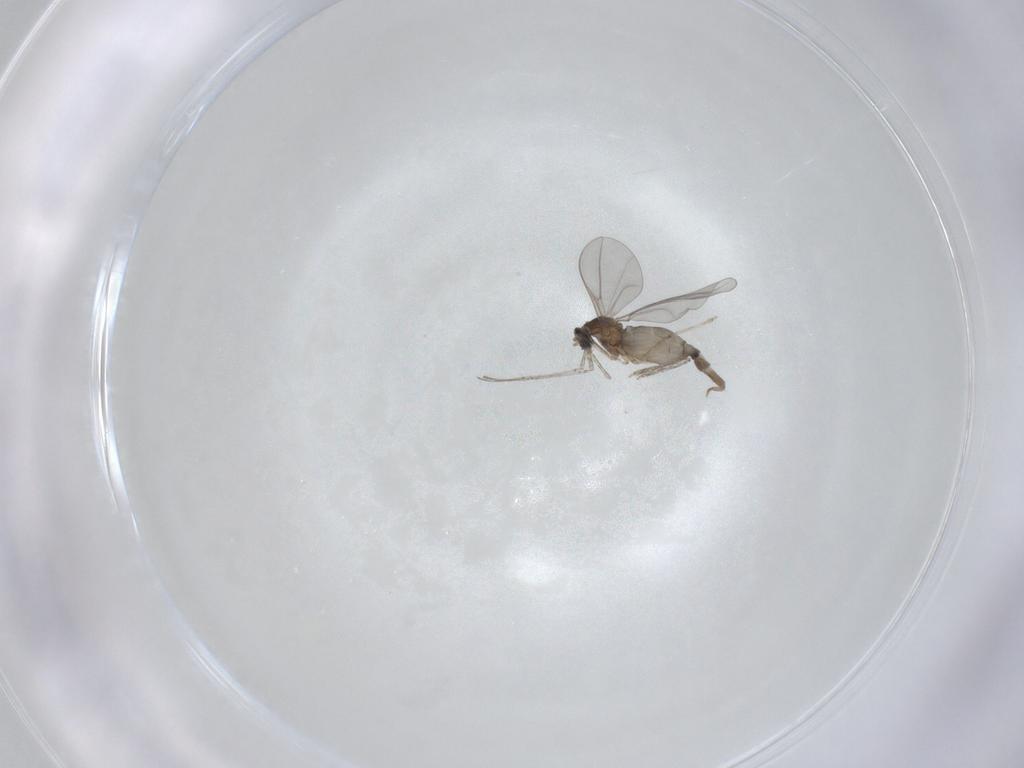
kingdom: Animalia
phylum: Arthropoda
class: Insecta
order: Diptera
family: Cecidomyiidae
